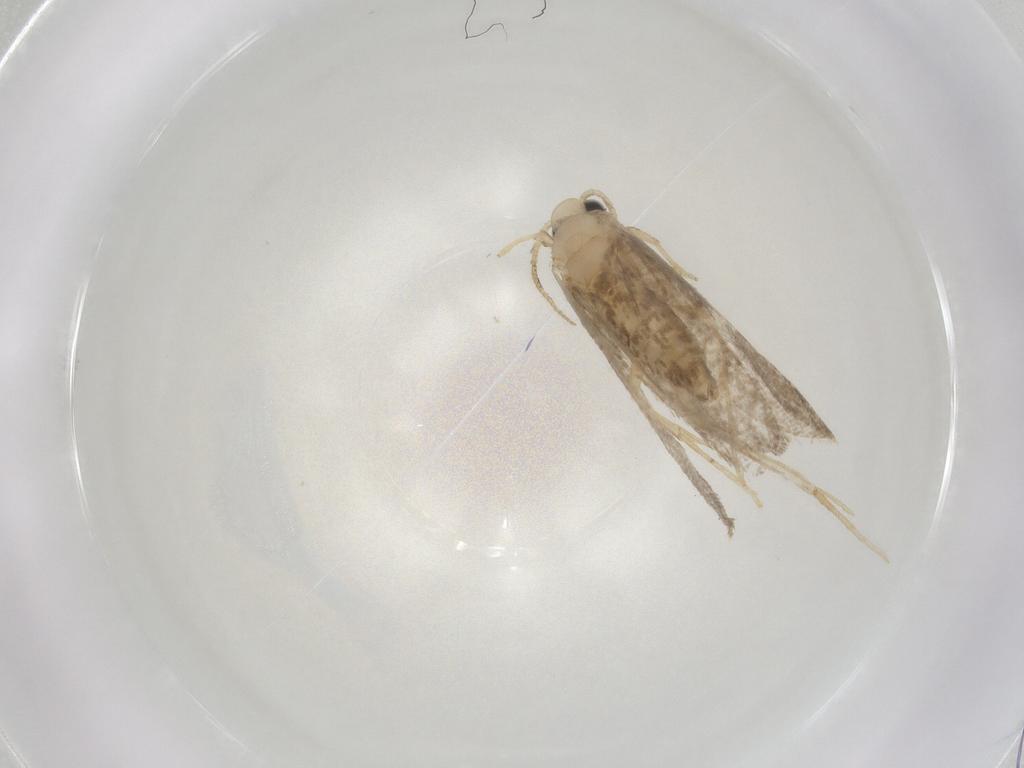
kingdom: Animalia
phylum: Arthropoda
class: Insecta
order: Lepidoptera
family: Psychidae
